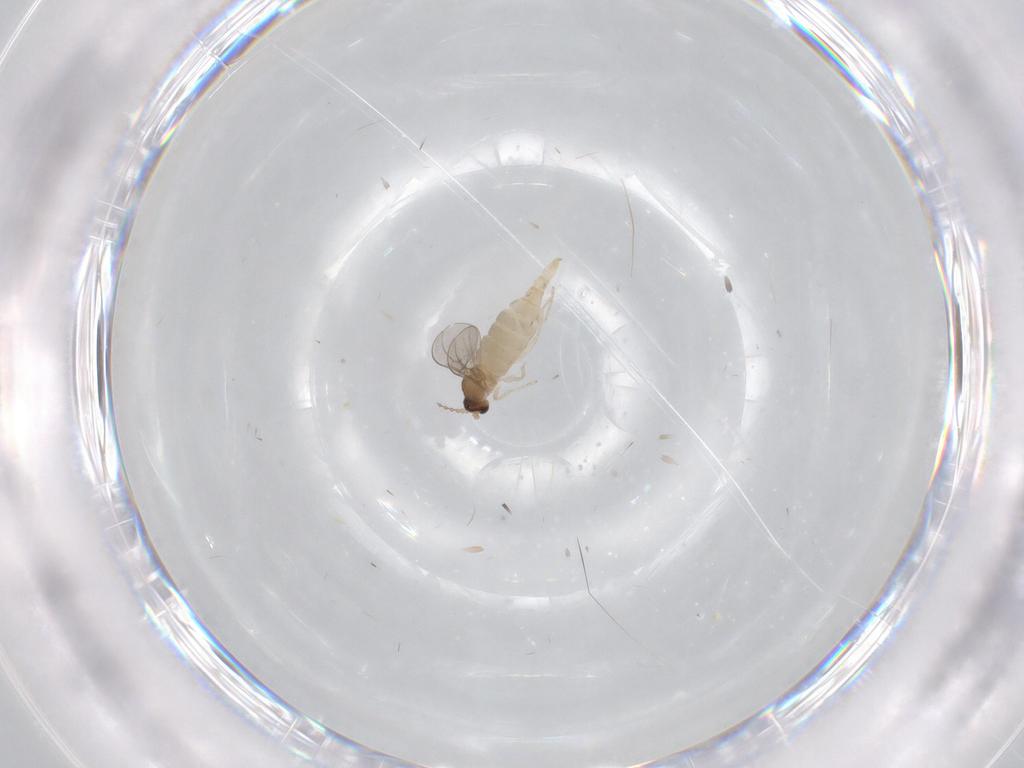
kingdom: Animalia
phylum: Arthropoda
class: Insecta
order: Diptera
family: Cecidomyiidae
